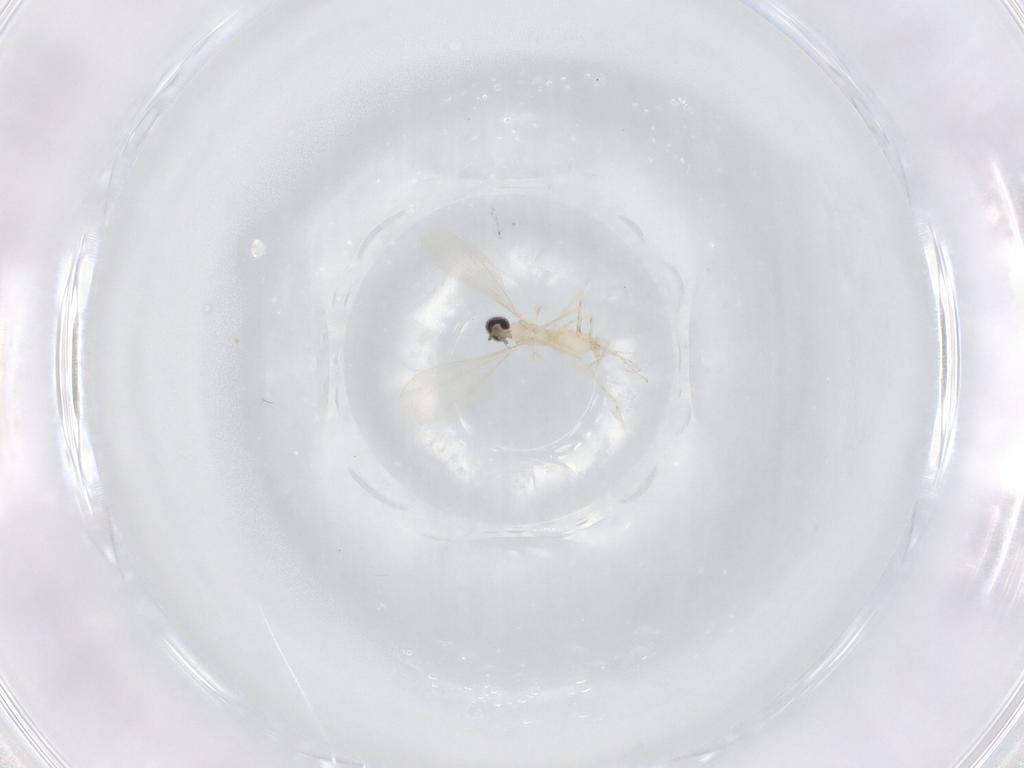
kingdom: Animalia
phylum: Arthropoda
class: Insecta
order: Diptera
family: Cecidomyiidae
